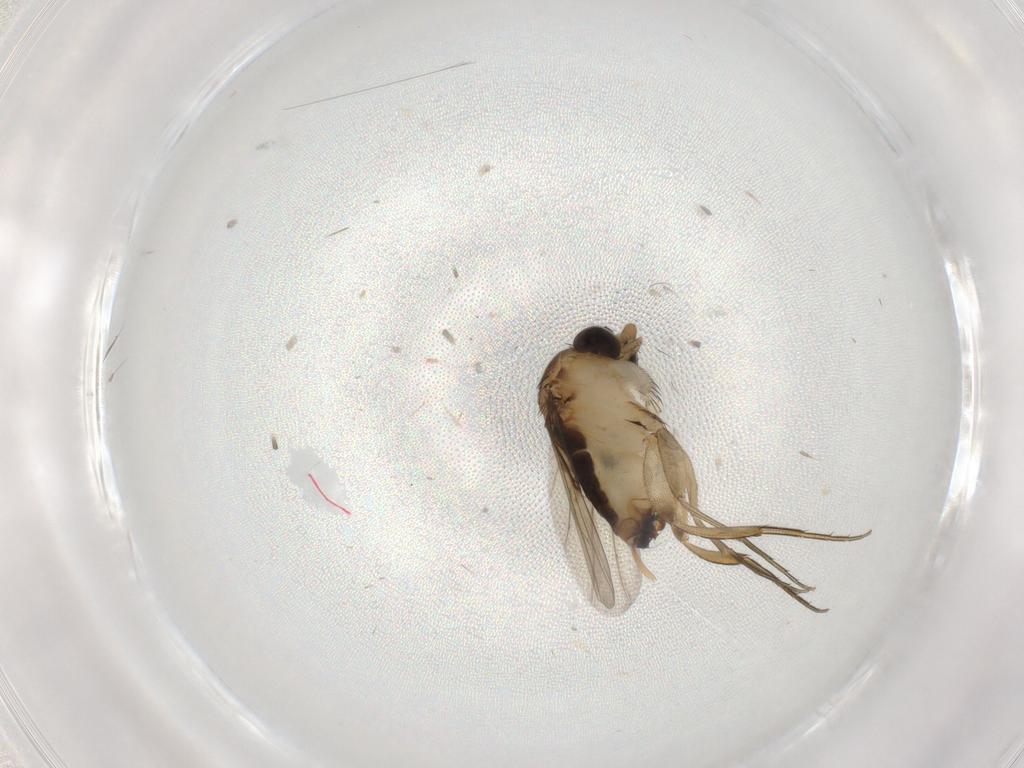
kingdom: Animalia
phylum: Arthropoda
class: Insecta
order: Diptera
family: Phoridae
